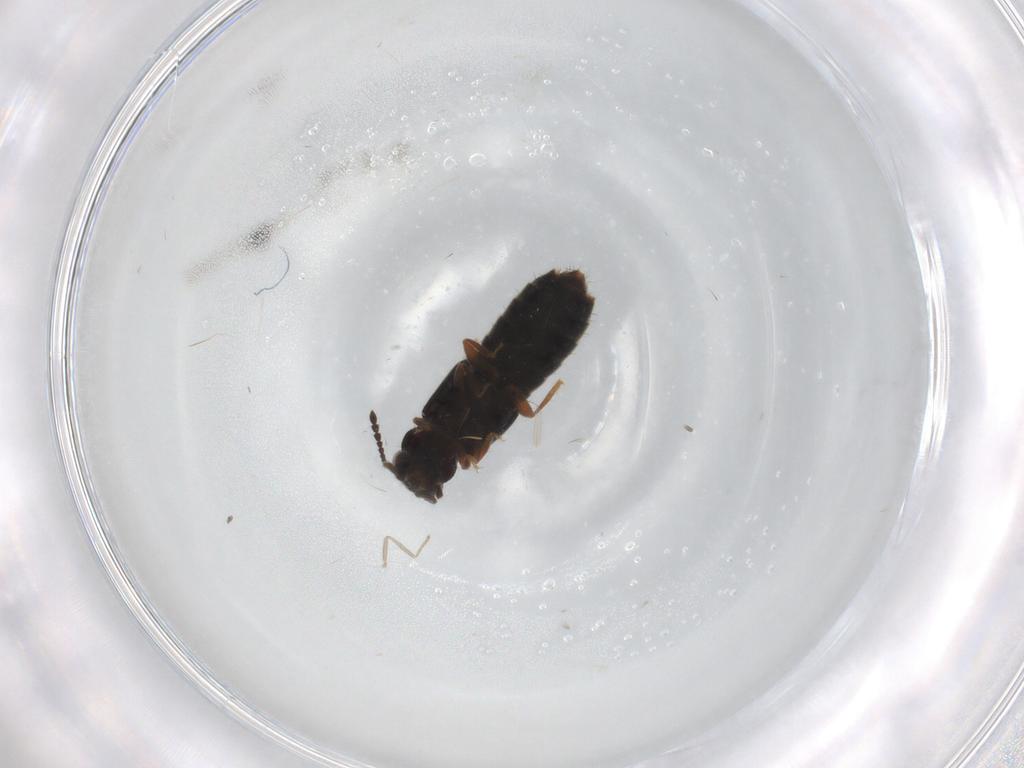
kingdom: Animalia
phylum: Arthropoda
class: Insecta
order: Coleoptera
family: Staphylinidae
